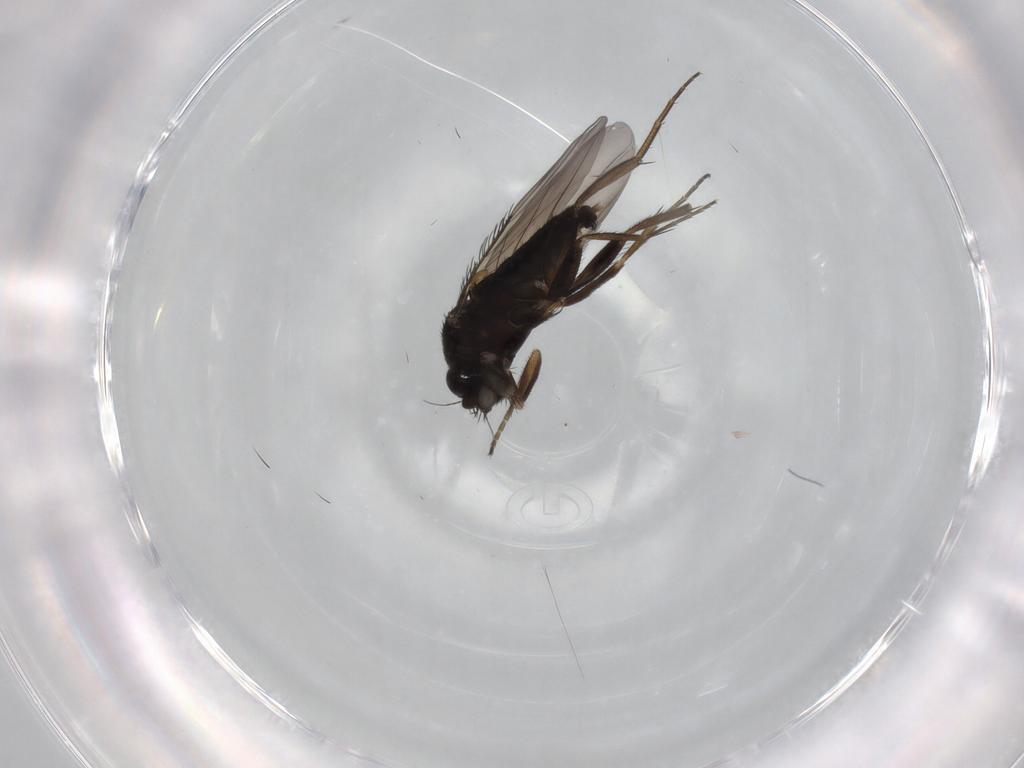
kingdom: Animalia
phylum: Arthropoda
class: Insecta
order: Diptera
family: Phoridae
